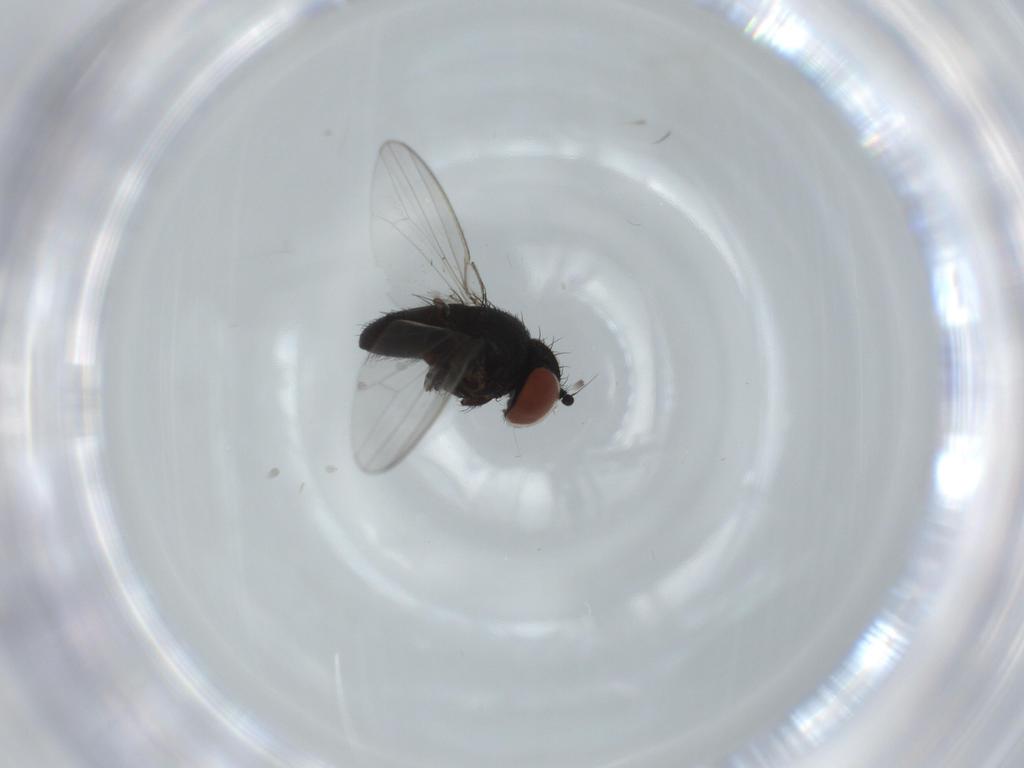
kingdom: Animalia
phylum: Arthropoda
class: Insecta
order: Diptera
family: Milichiidae
